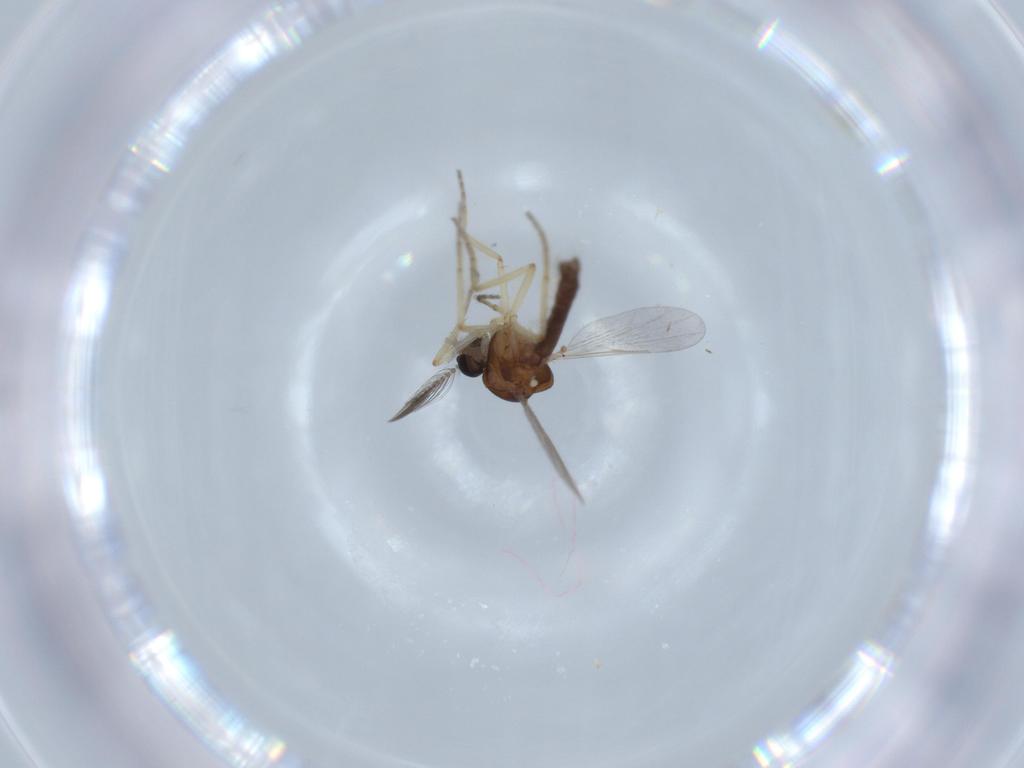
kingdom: Animalia
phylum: Arthropoda
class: Insecta
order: Diptera
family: Ceratopogonidae
